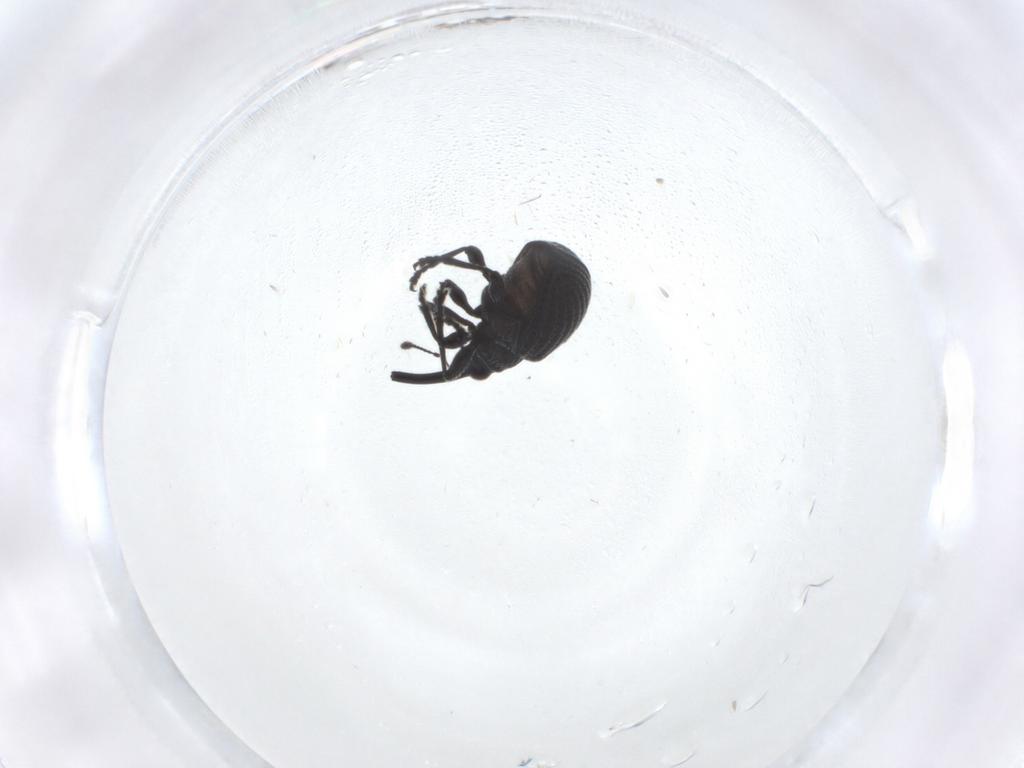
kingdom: Animalia
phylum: Arthropoda
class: Insecta
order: Coleoptera
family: Brentidae
